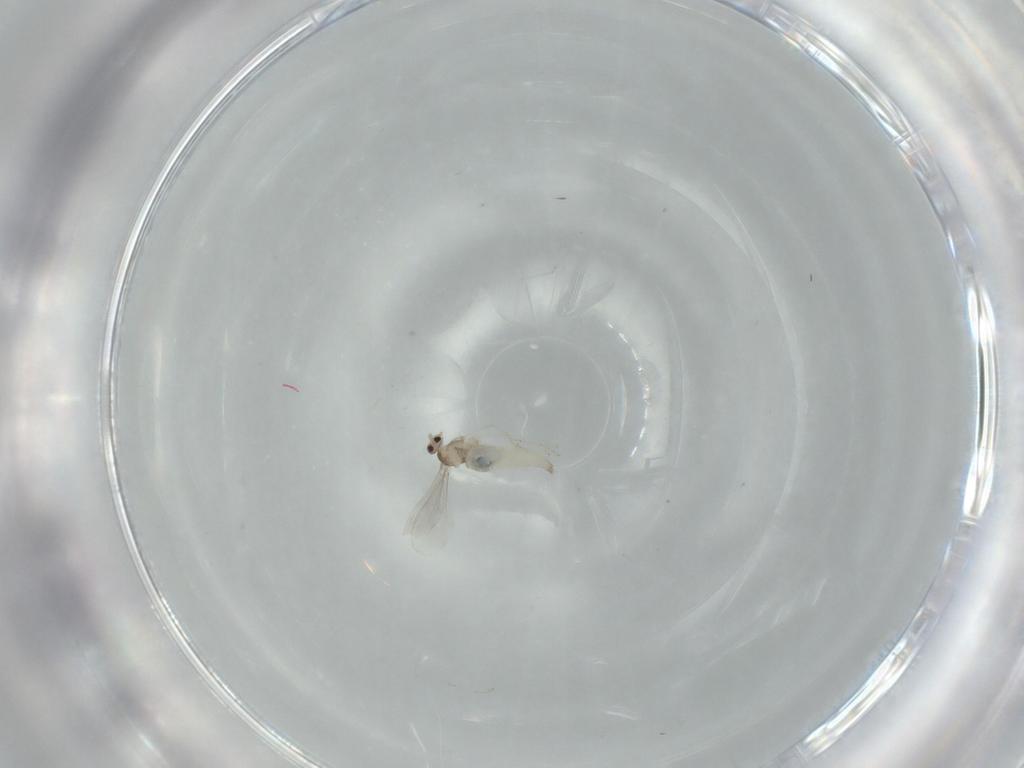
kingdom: Animalia
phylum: Arthropoda
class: Insecta
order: Diptera
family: Cecidomyiidae
